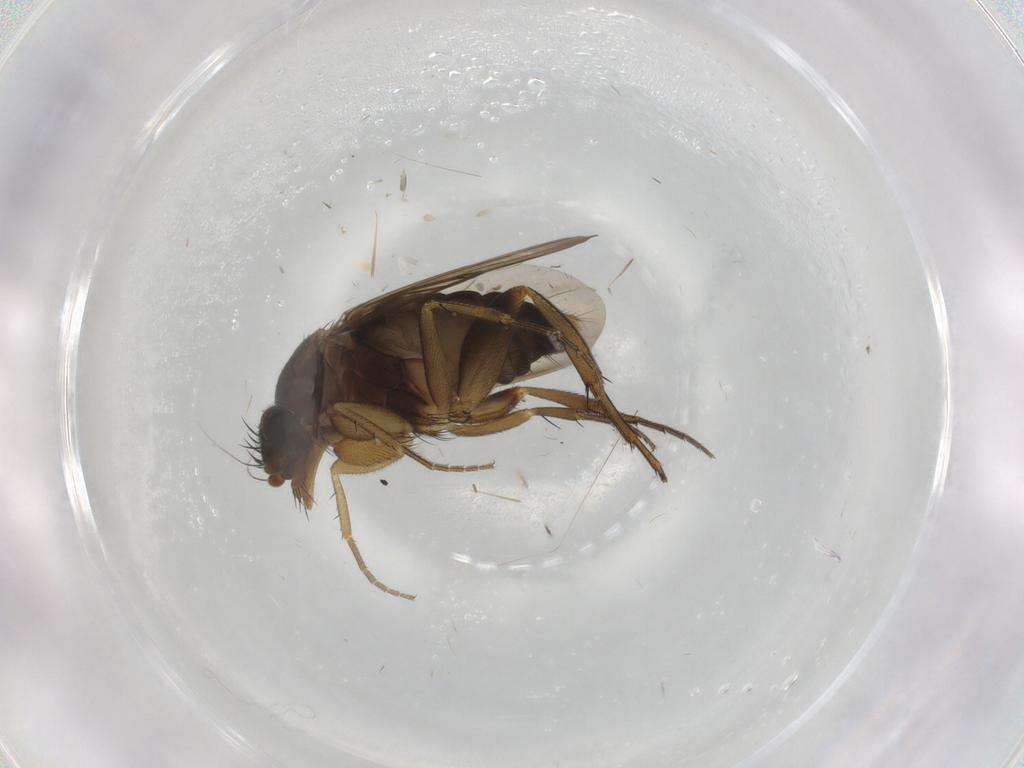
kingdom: Animalia
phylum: Arthropoda
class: Insecta
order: Diptera
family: Phoridae
